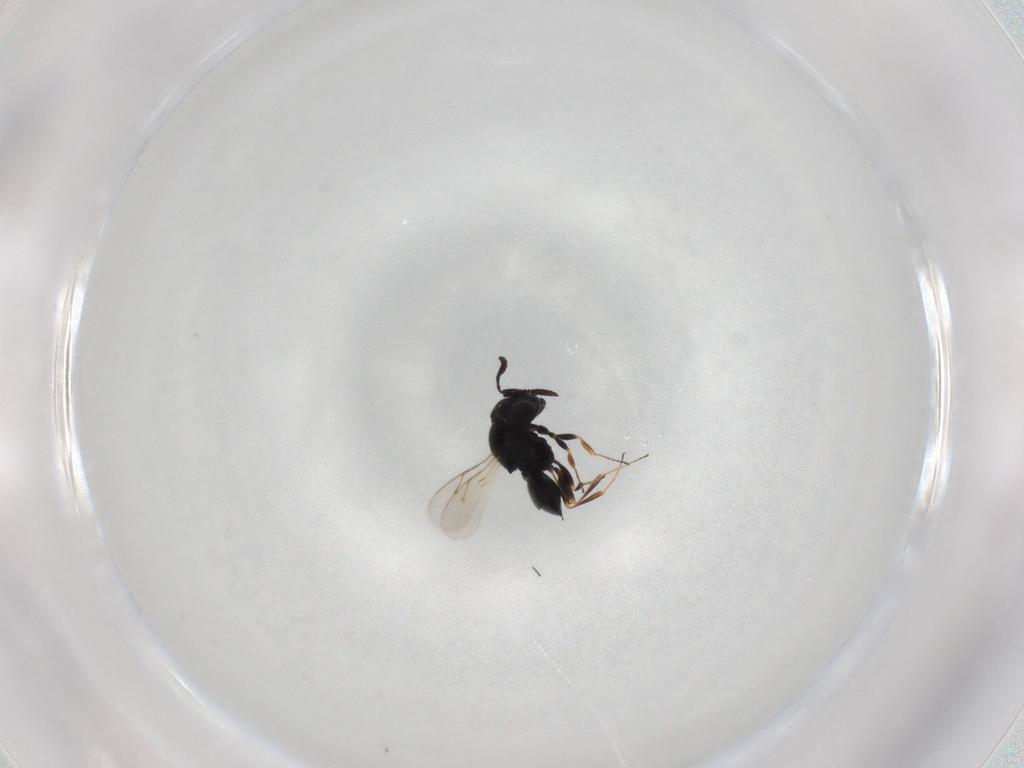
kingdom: Animalia
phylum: Arthropoda
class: Insecta
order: Hymenoptera
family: Scelionidae
